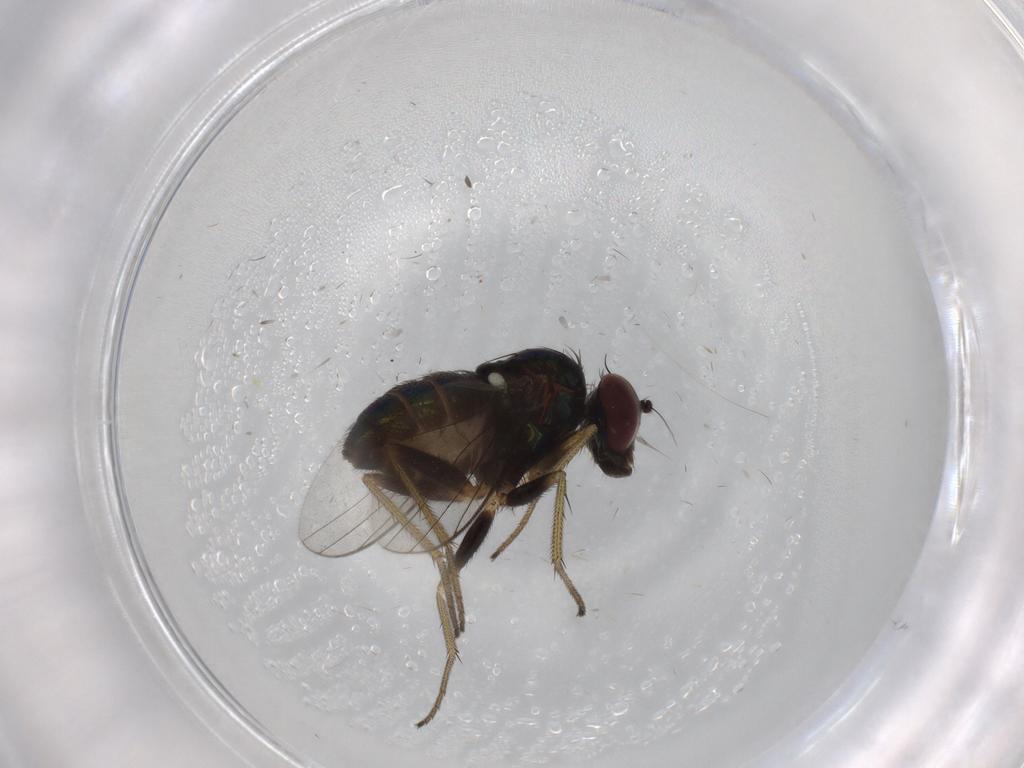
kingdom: Animalia
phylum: Arthropoda
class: Insecta
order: Diptera
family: Dolichopodidae
